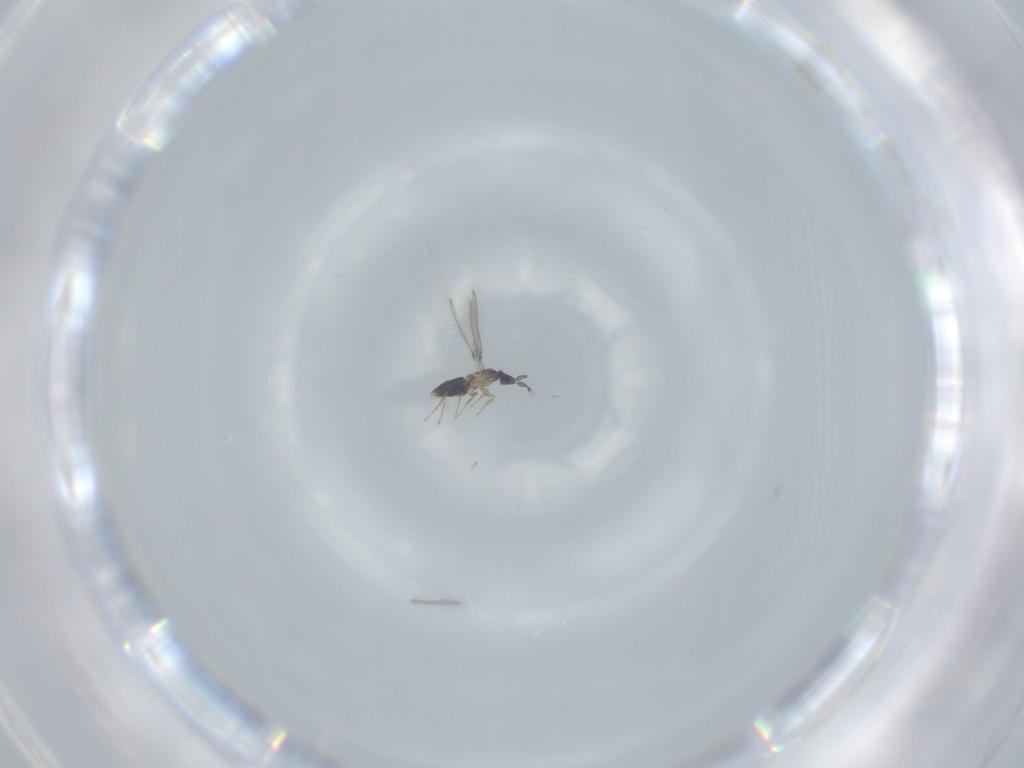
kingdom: Animalia
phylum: Arthropoda
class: Insecta
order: Hymenoptera
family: Mymaridae
